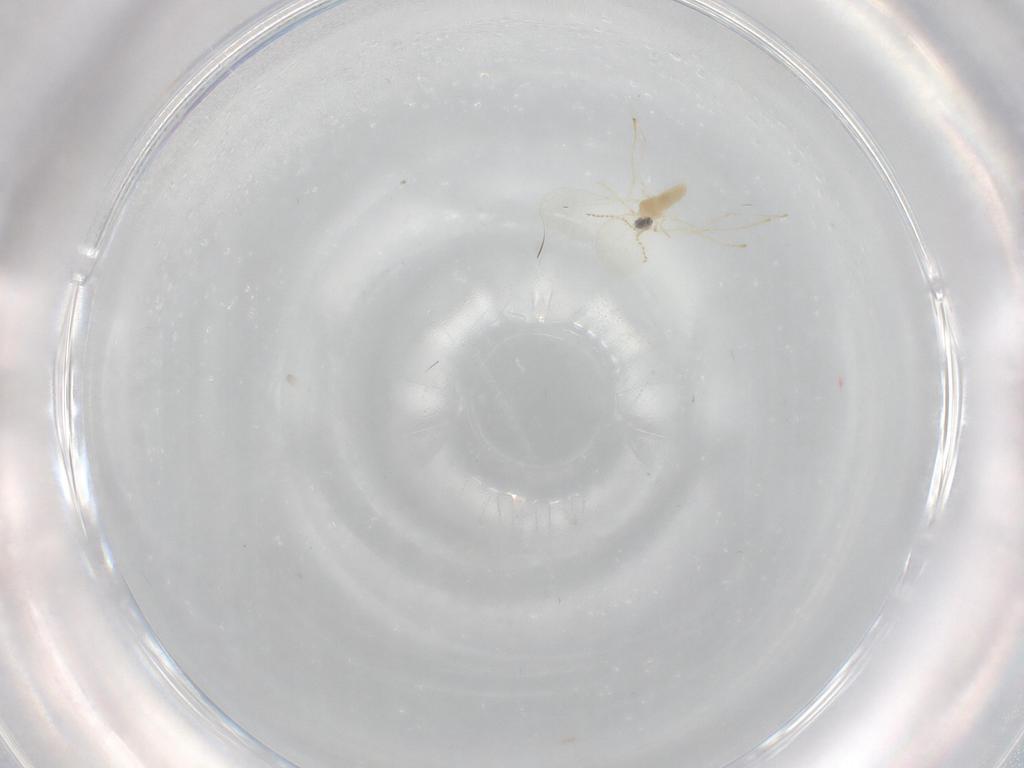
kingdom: Animalia
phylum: Arthropoda
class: Insecta
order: Diptera
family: Cecidomyiidae
